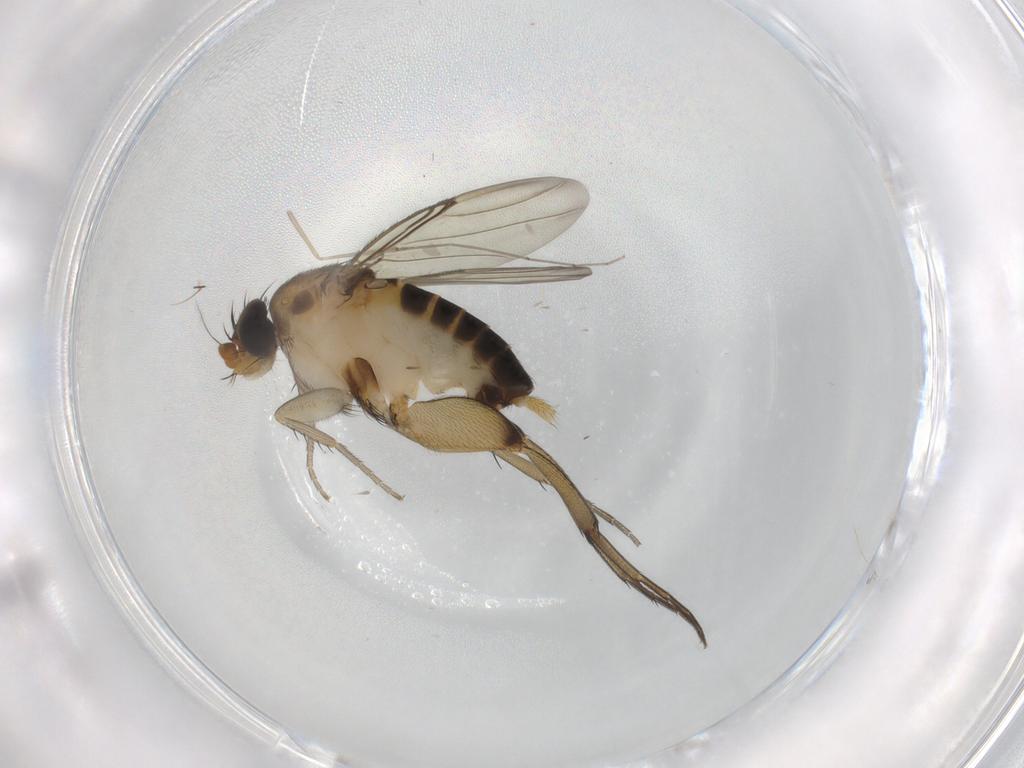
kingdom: Animalia
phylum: Arthropoda
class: Insecta
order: Diptera
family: Phoridae
